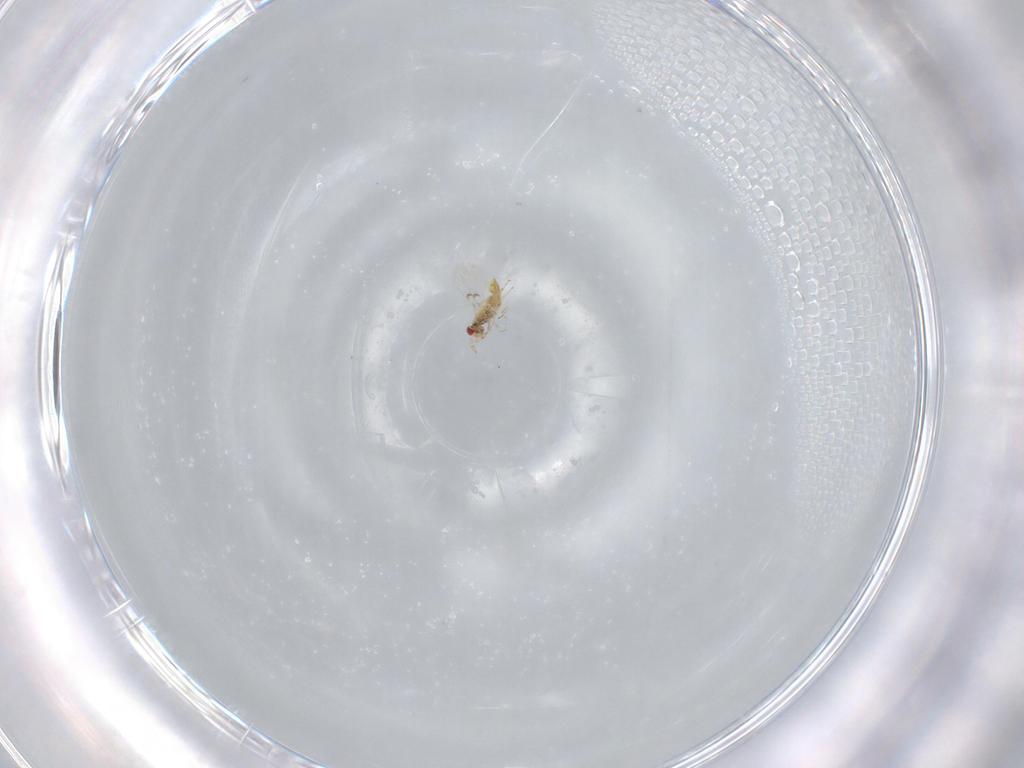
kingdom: Animalia
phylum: Arthropoda
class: Insecta
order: Hymenoptera
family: Trichogrammatidae
